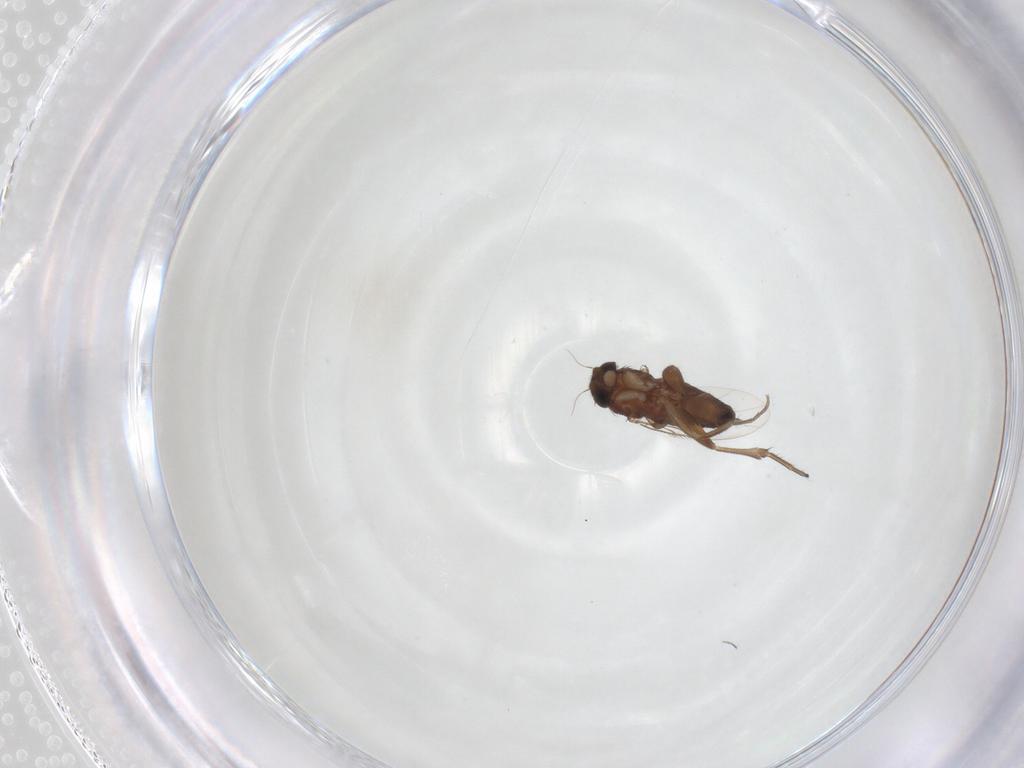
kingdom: Animalia
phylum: Arthropoda
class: Insecta
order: Diptera
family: Phoridae
